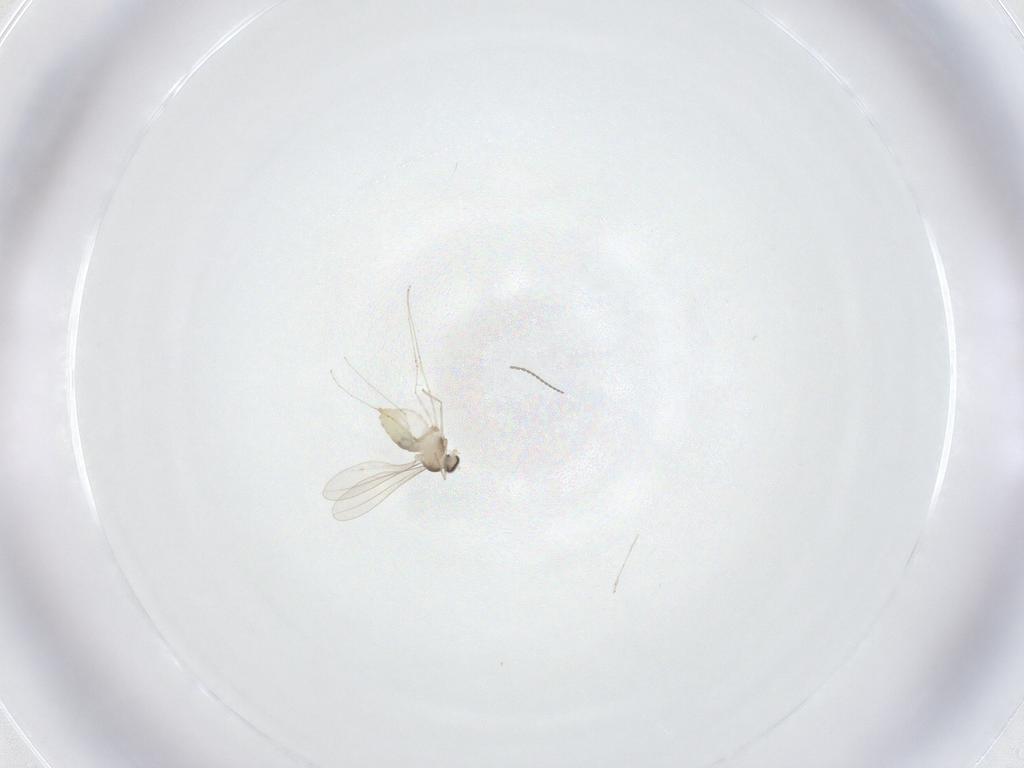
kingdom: Animalia
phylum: Arthropoda
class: Insecta
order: Diptera
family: Cecidomyiidae
